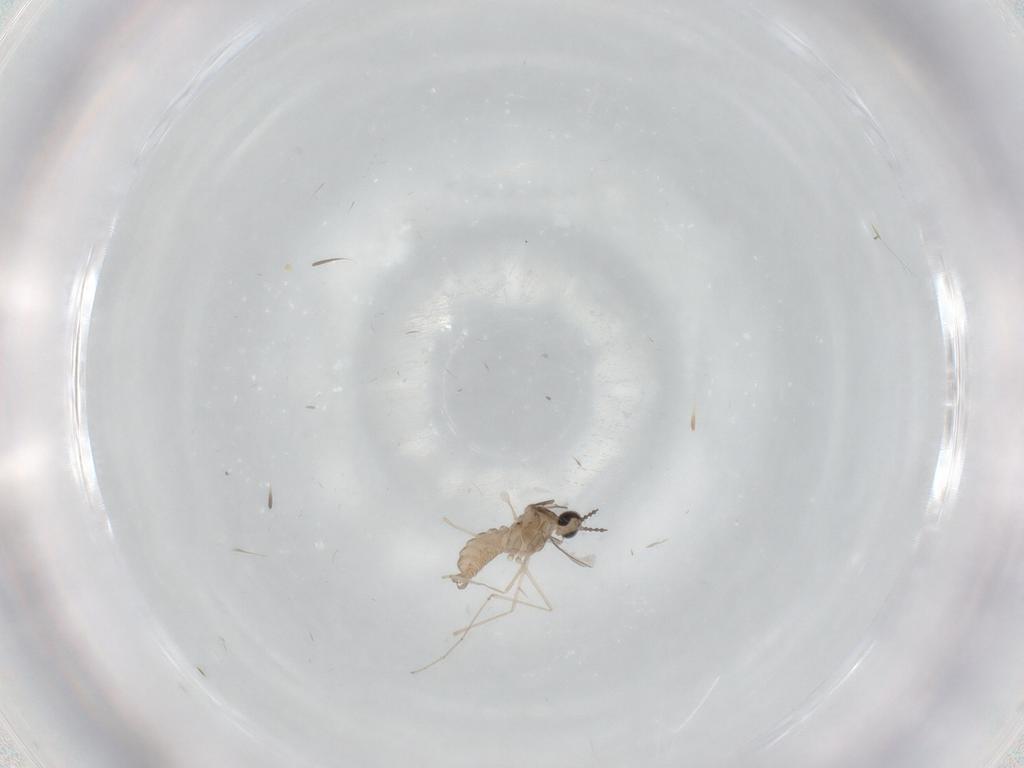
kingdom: Animalia
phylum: Arthropoda
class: Insecta
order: Diptera
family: Cecidomyiidae
